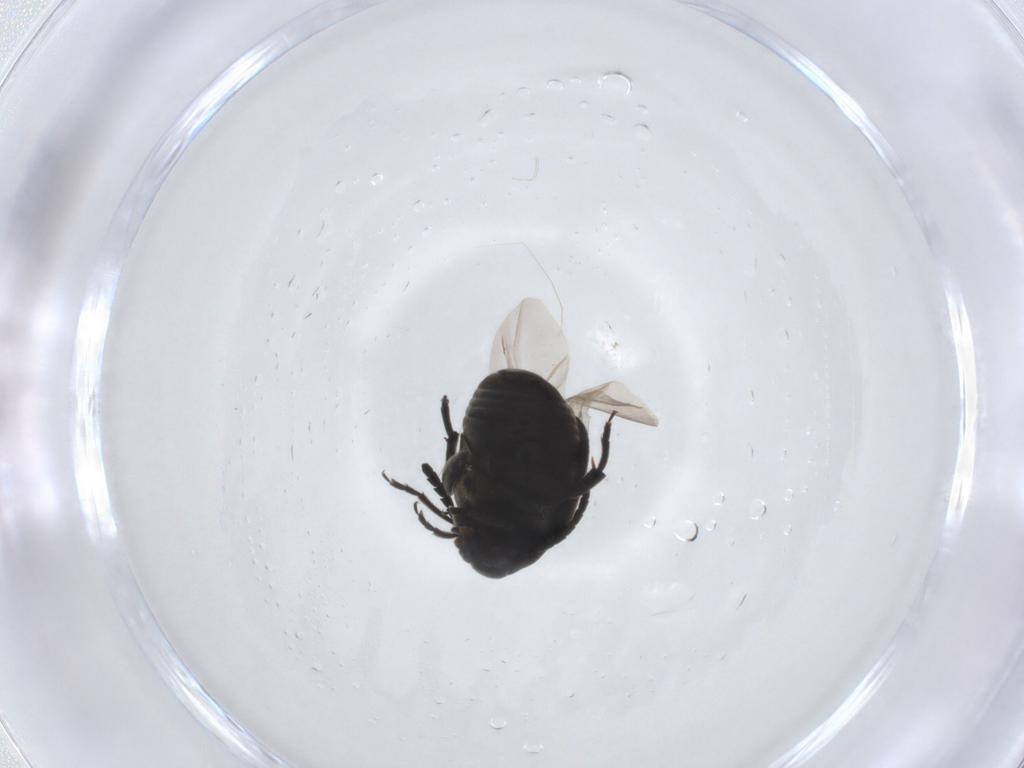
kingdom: Animalia
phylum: Arthropoda
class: Insecta
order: Coleoptera
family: Chrysomelidae
